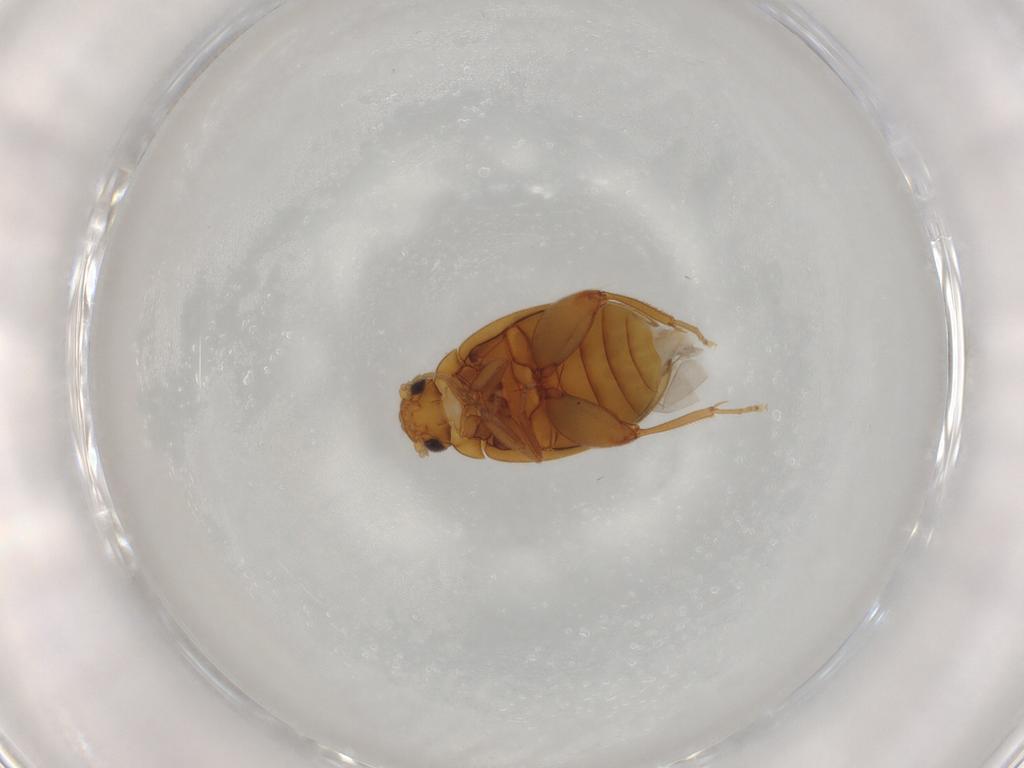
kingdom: Animalia
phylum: Arthropoda
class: Insecta
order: Coleoptera
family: Scirtidae
